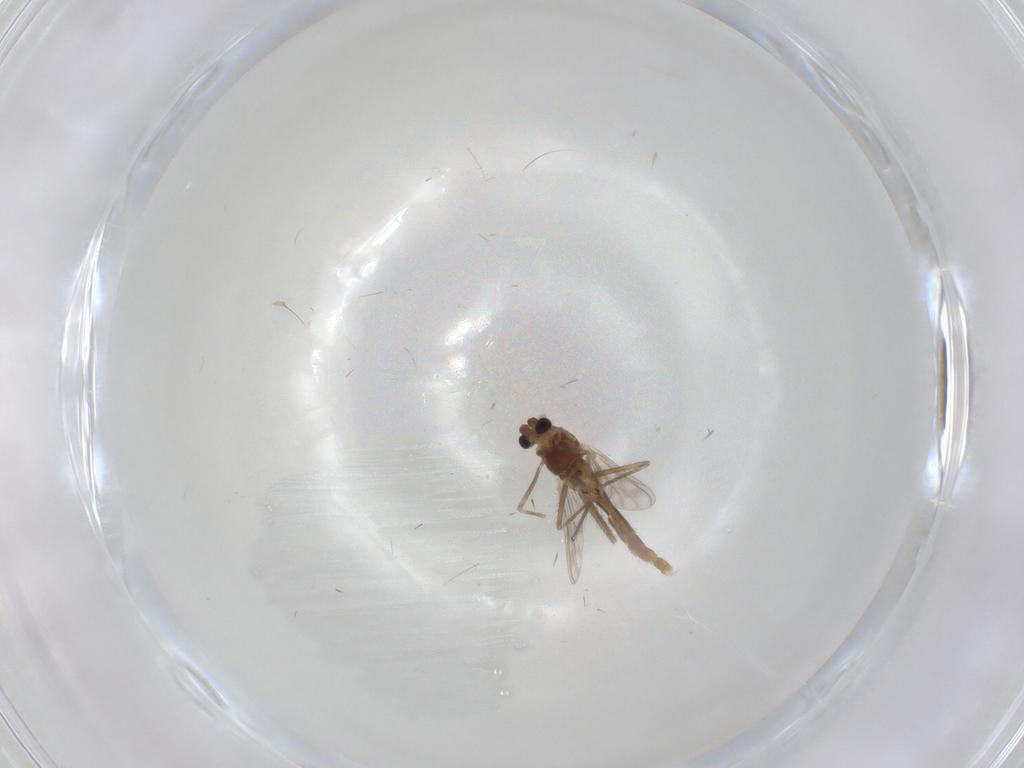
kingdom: Animalia
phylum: Arthropoda
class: Insecta
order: Diptera
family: Chironomidae
